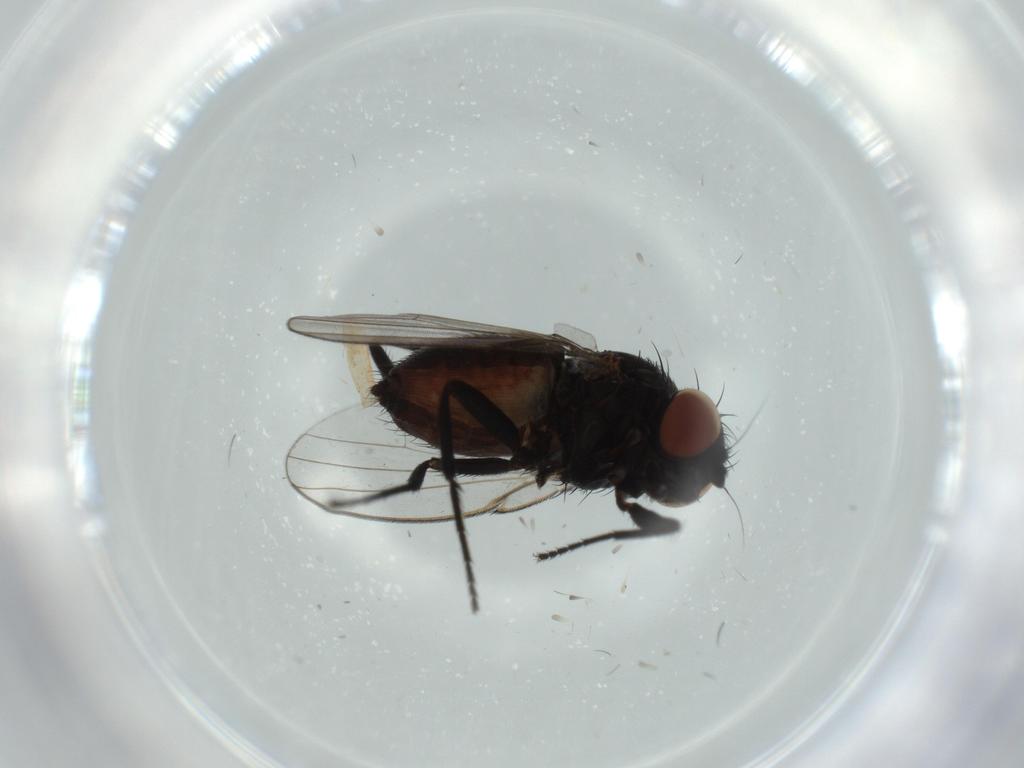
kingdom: Animalia
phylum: Arthropoda
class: Insecta
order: Diptera
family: Milichiidae
